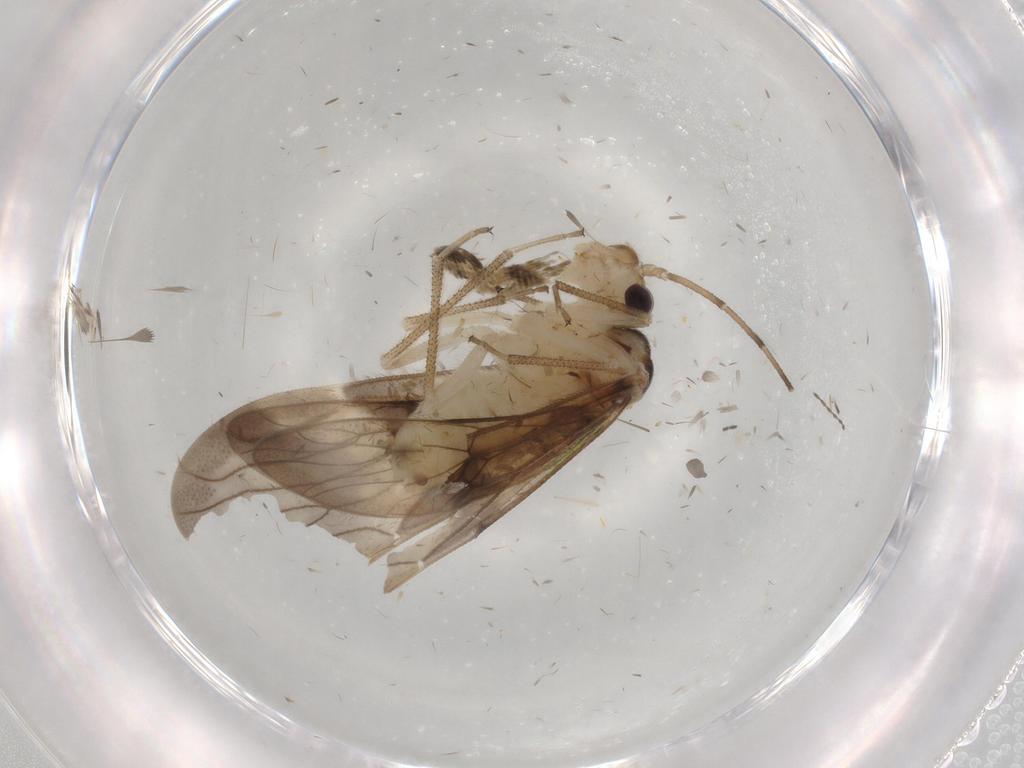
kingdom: Animalia
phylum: Arthropoda
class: Insecta
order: Psocodea
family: Amphipsocidae
